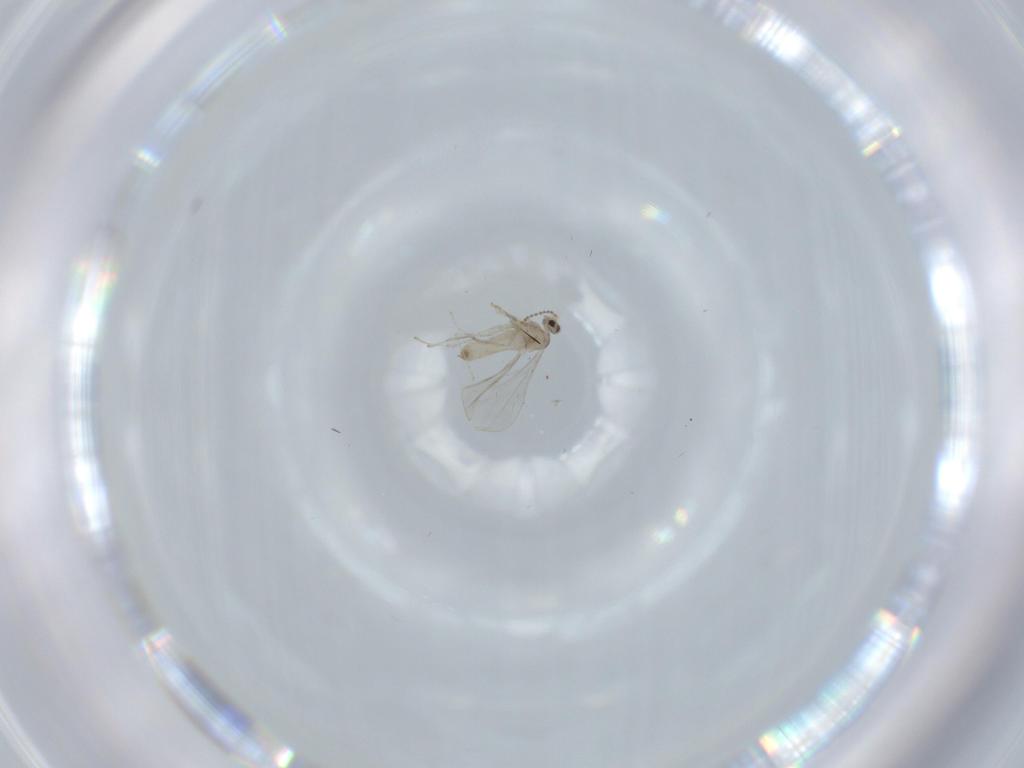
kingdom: Animalia
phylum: Arthropoda
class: Insecta
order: Diptera
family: Cecidomyiidae
